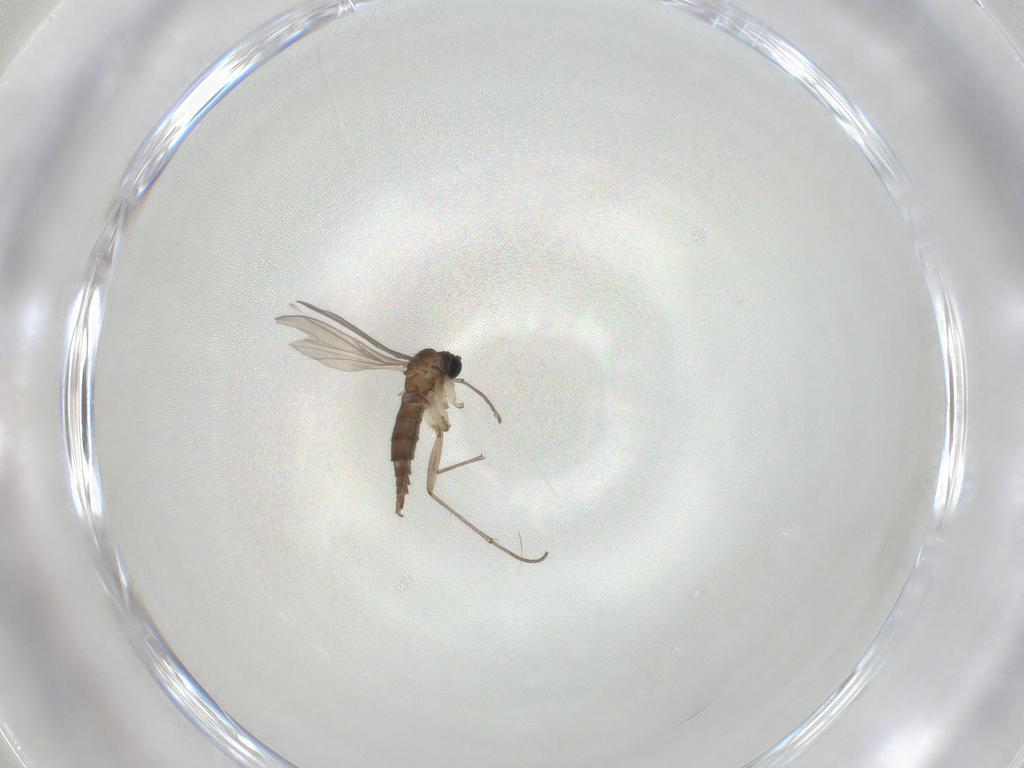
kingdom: Animalia
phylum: Arthropoda
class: Insecta
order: Diptera
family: Sciaridae
